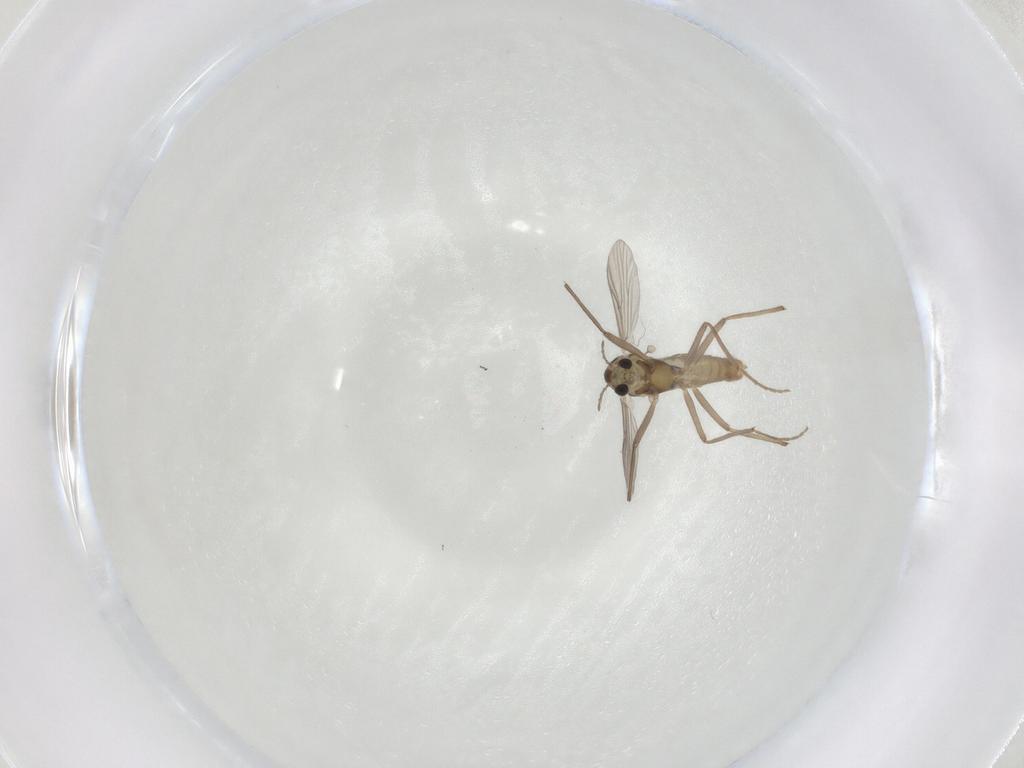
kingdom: Animalia
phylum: Arthropoda
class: Insecta
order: Diptera
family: Chironomidae
